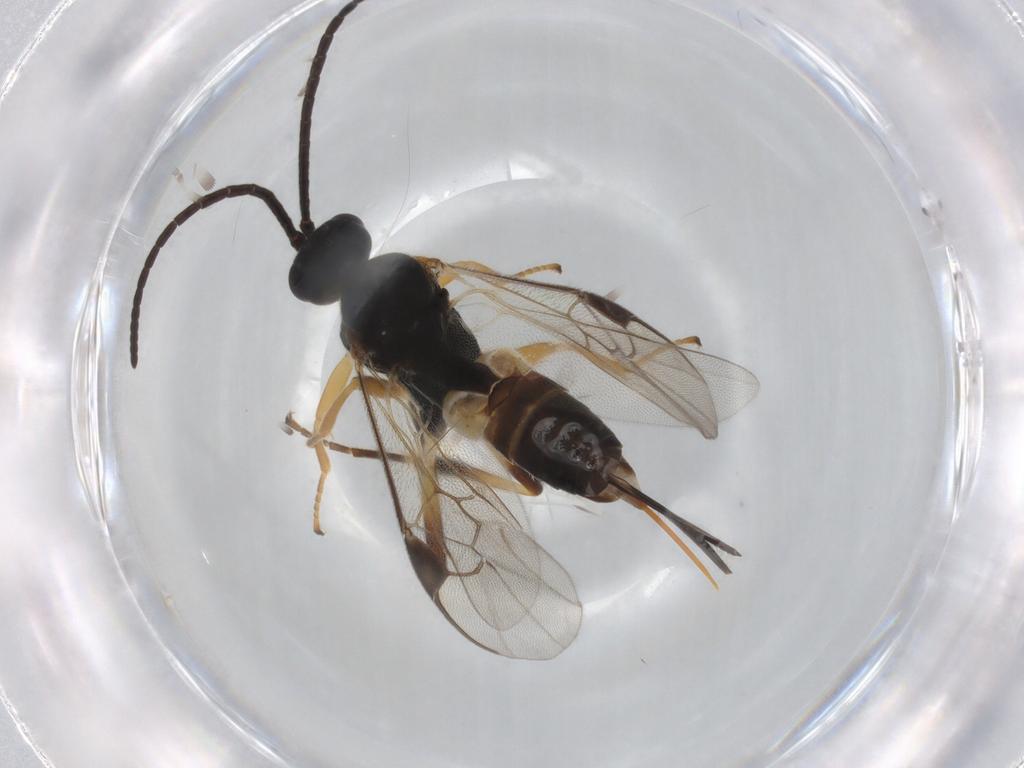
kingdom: Animalia
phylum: Arthropoda
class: Insecta
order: Hymenoptera
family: Braconidae
